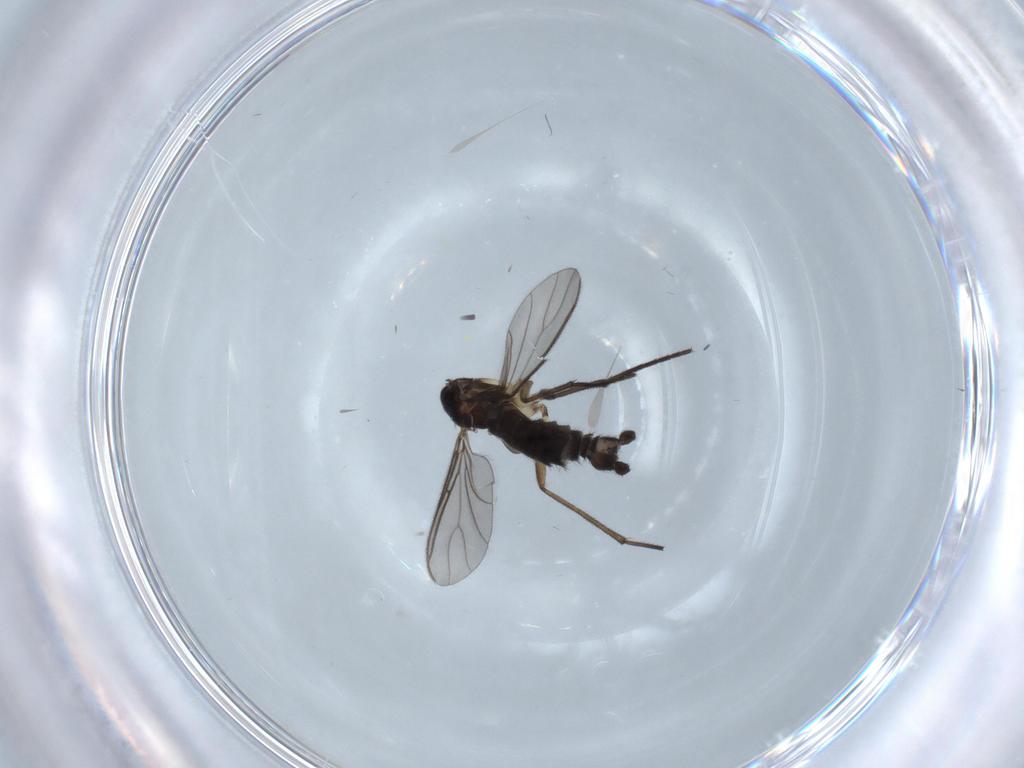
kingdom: Animalia
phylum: Arthropoda
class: Insecta
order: Diptera
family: Sciaridae
